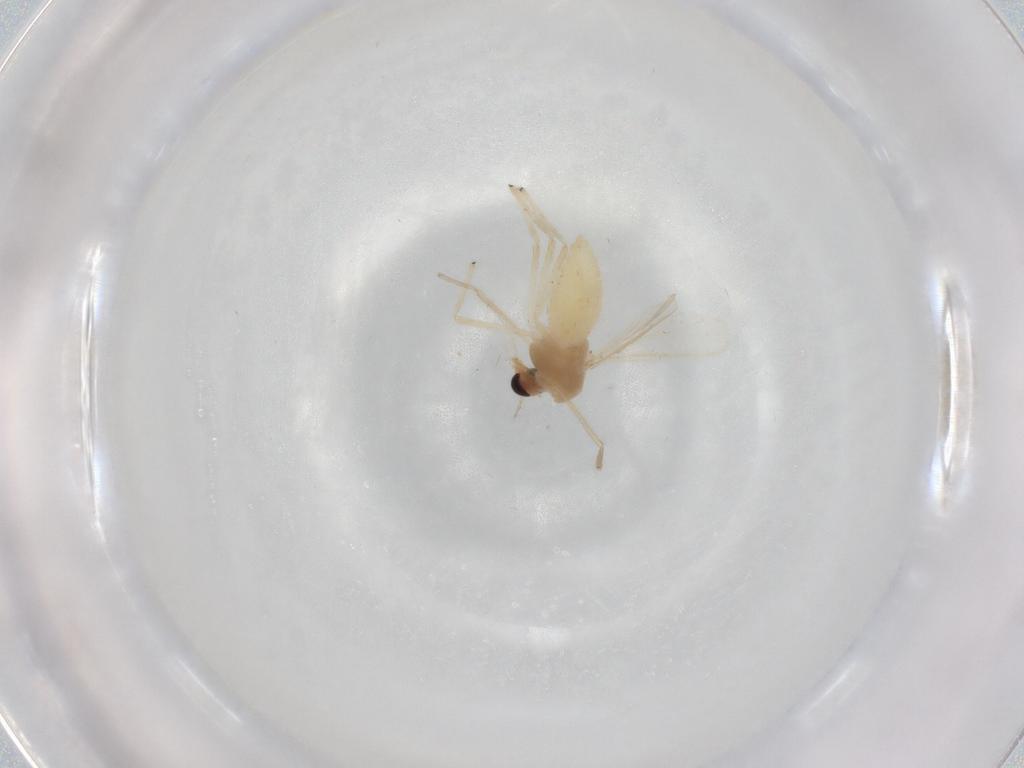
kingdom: Animalia
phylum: Arthropoda
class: Insecta
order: Diptera
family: Chironomidae
